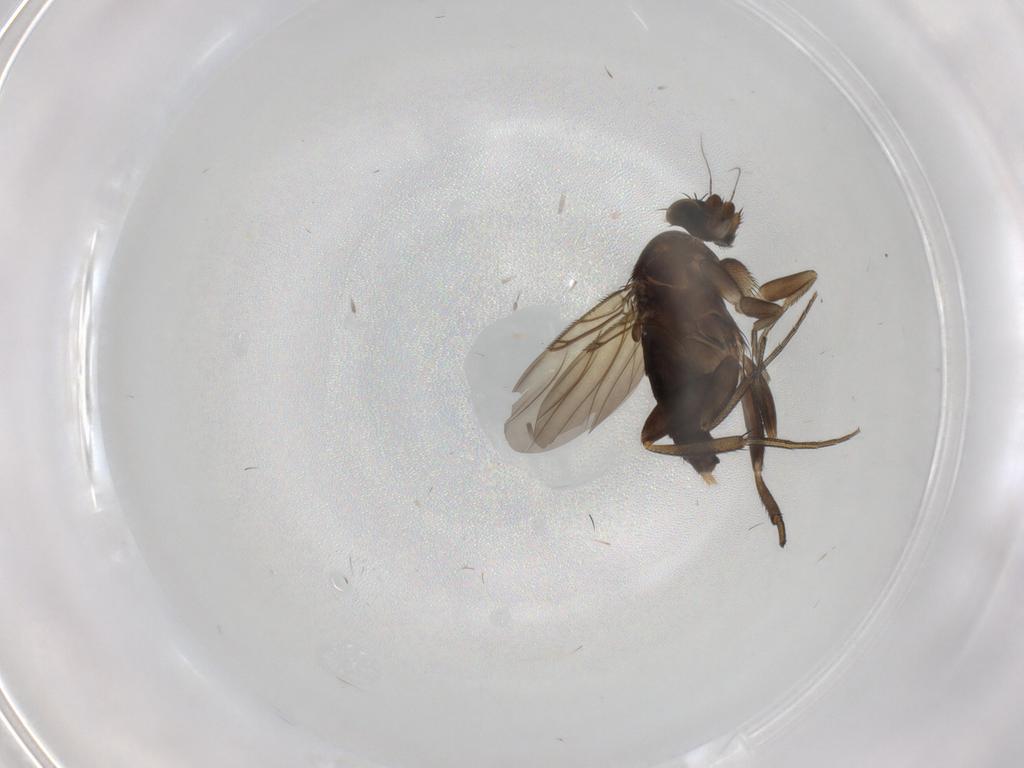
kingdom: Animalia
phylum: Arthropoda
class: Insecta
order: Diptera
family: Phoridae
